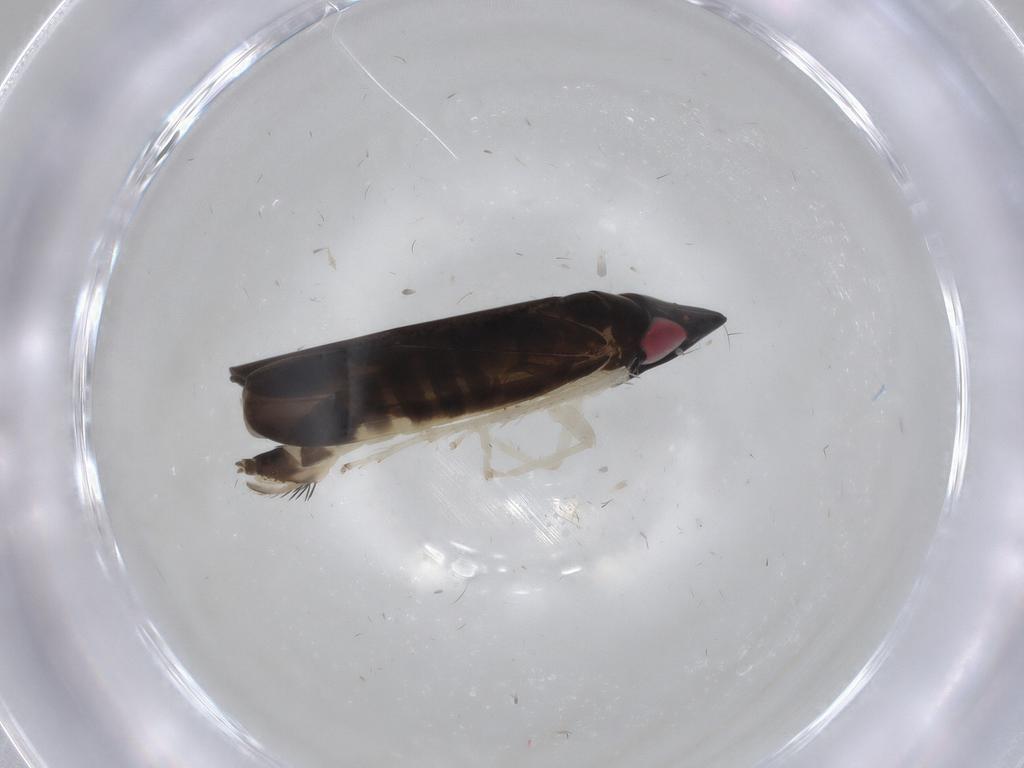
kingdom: Animalia
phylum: Arthropoda
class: Insecta
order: Hemiptera
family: Cicadellidae
